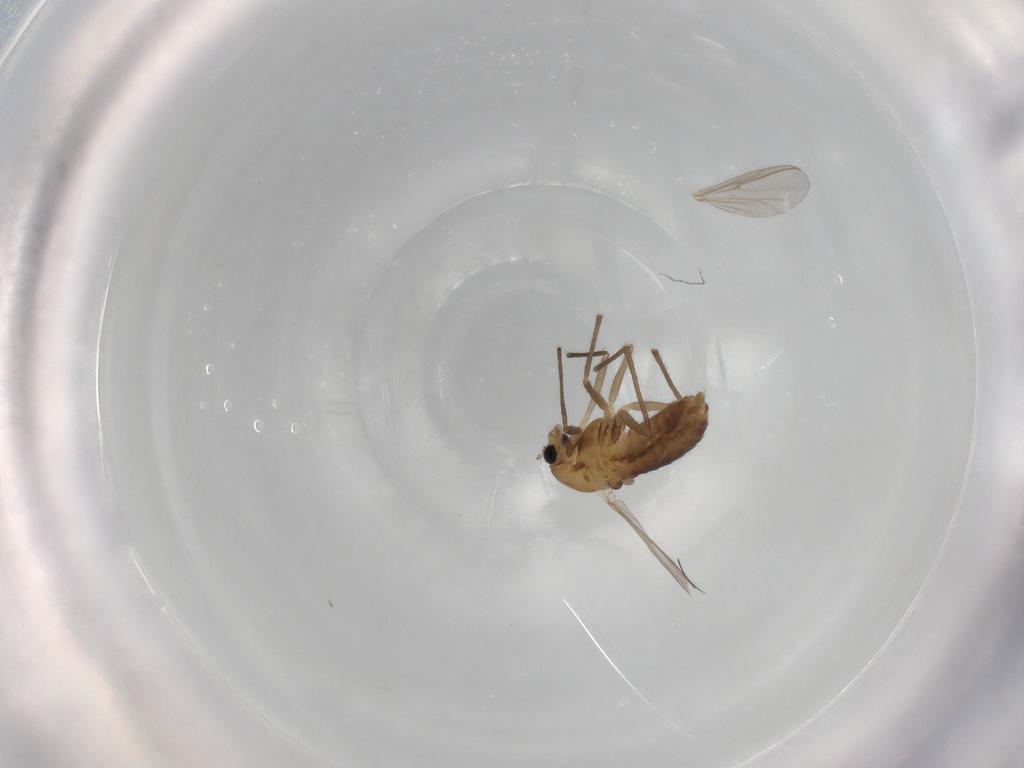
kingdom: Animalia
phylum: Arthropoda
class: Insecta
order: Diptera
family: Chironomidae
